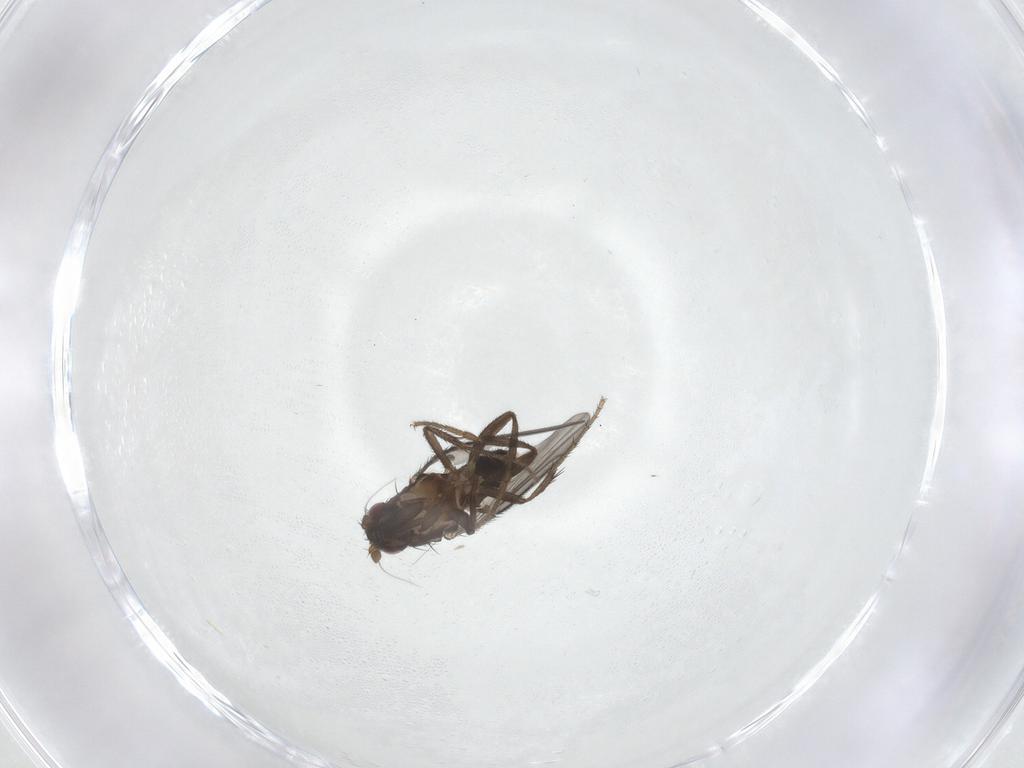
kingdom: Animalia
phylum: Arthropoda
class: Insecta
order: Diptera
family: Sphaeroceridae
